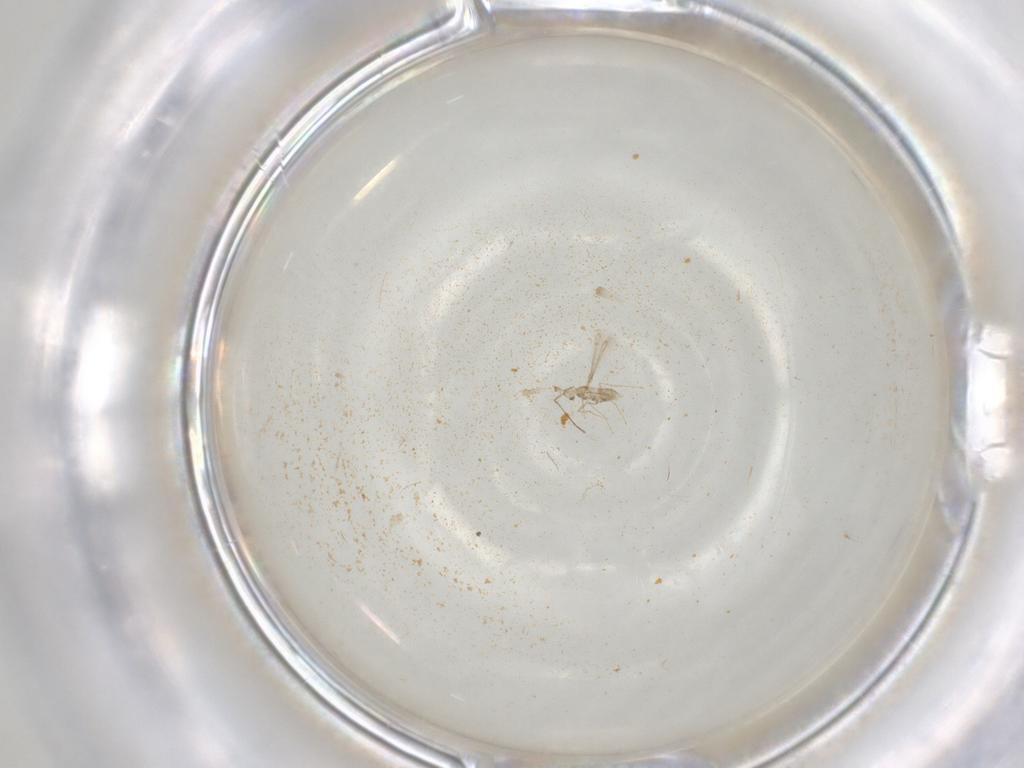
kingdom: Animalia
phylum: Arthropoda
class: Insecta
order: Hymenoptera
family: Mymaridae
